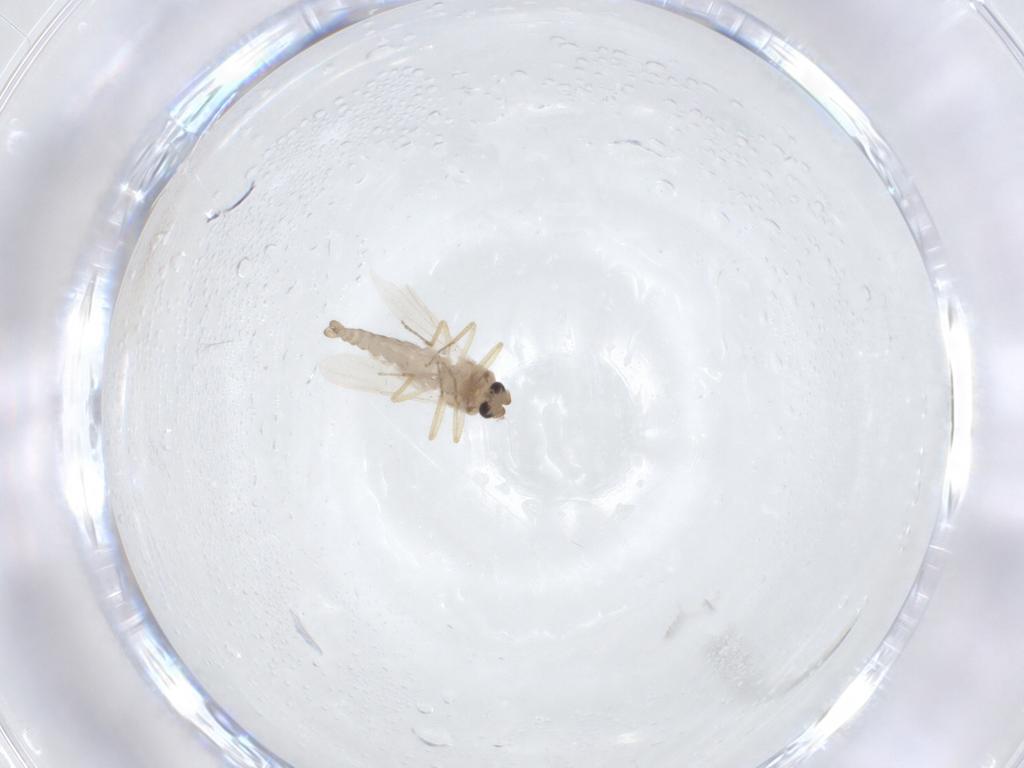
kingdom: Animalia
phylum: Arthropoda
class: Insecta
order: Diptera
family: Ceratopogonidae
